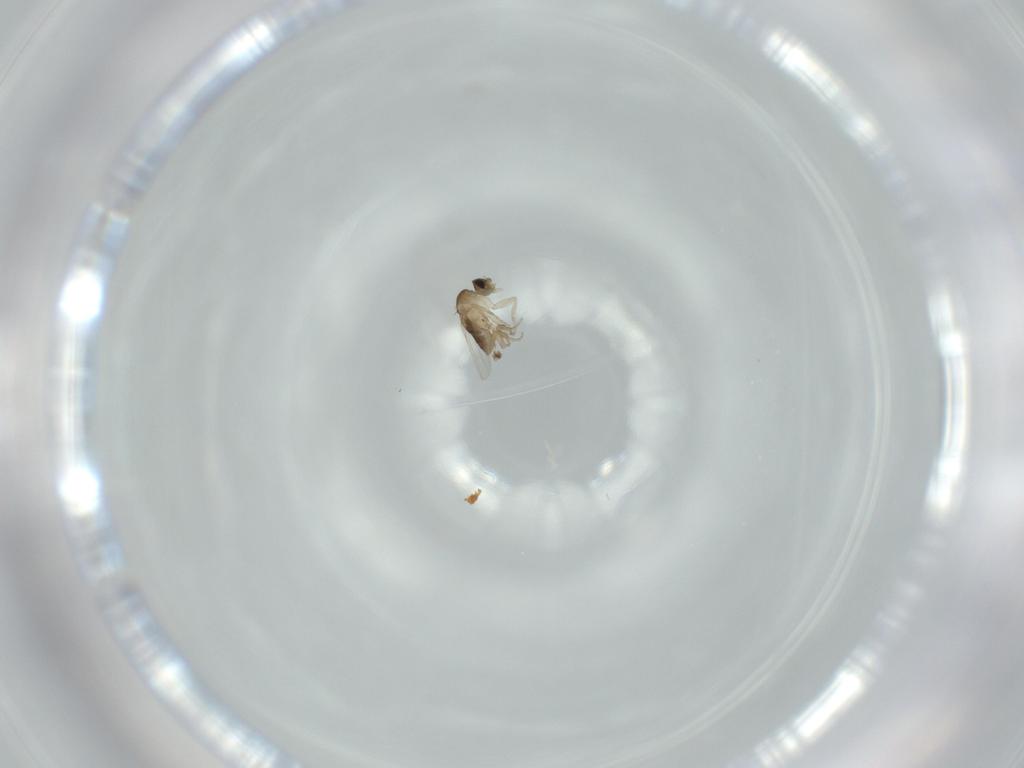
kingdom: Animalia
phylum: Arthropoda
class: Insecta
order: Diptera
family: Phoridae
